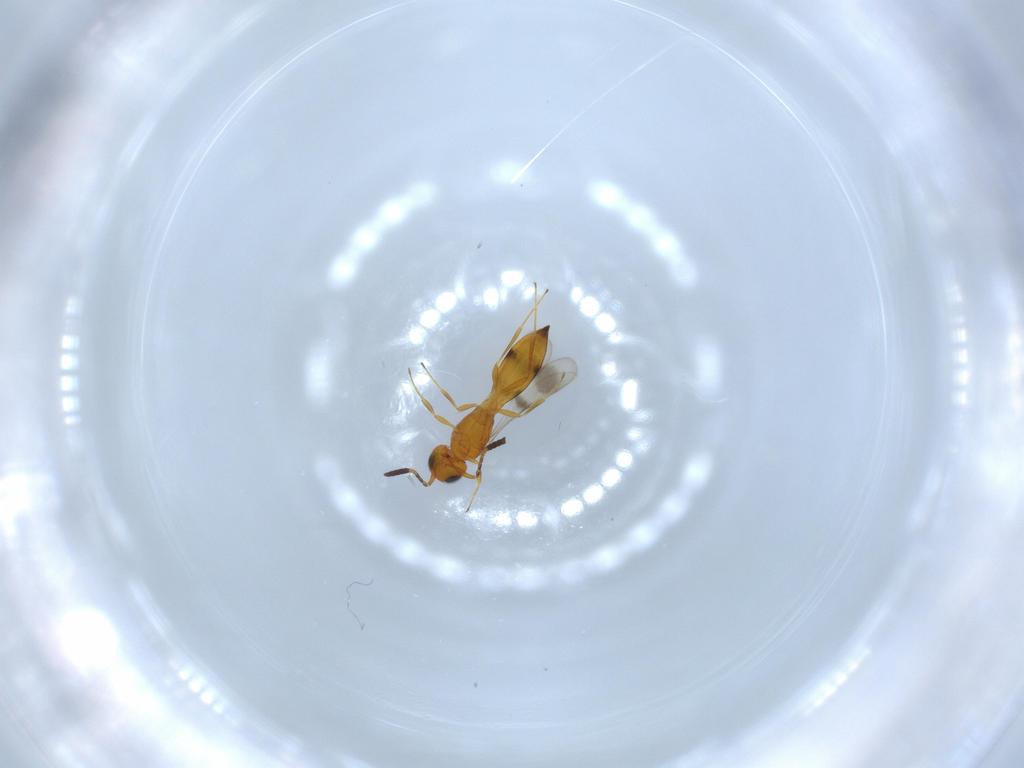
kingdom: Animalia
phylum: Arthropoda
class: Insecta
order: Hymenoptera
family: Scelionidae
